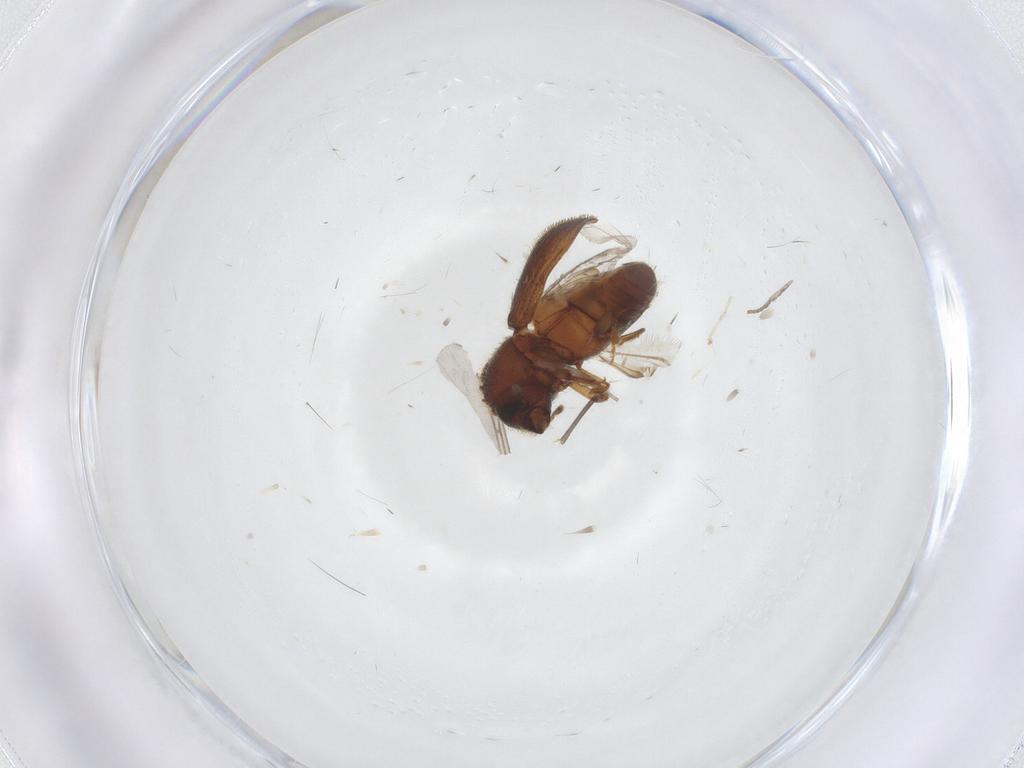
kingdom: Animalia
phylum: Arthropoda
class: Insecta
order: Coleoptera
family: Curculionidae
